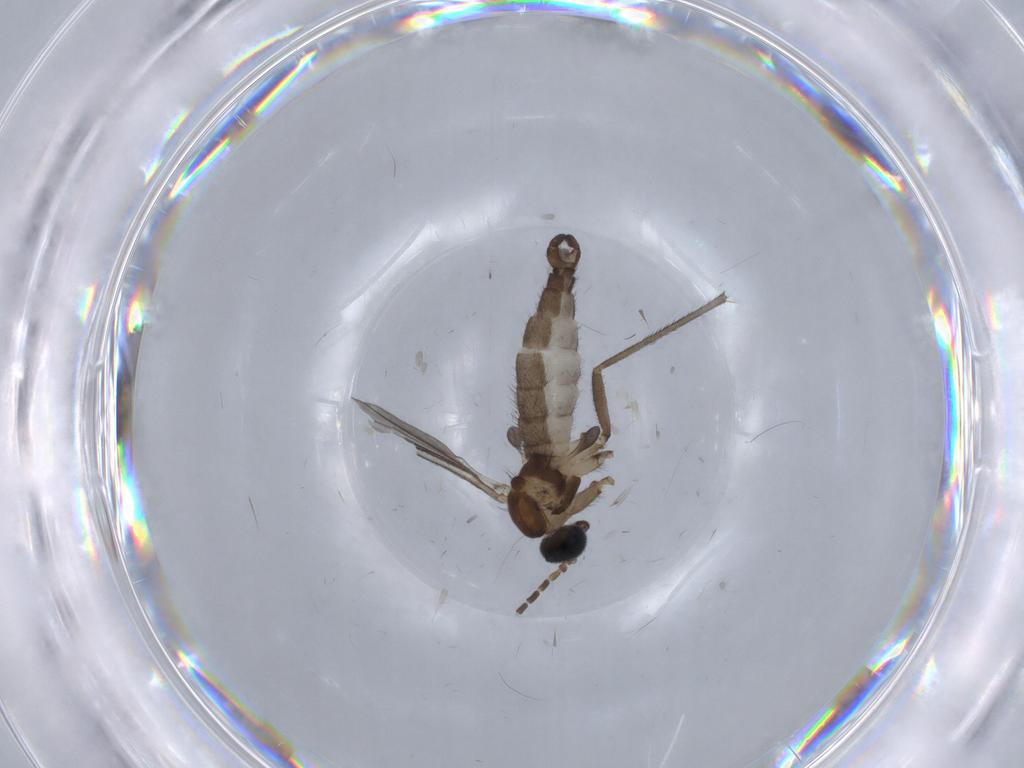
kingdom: Animalia
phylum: Arthropoda
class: Insecta
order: Diptera
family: Sciaridae
